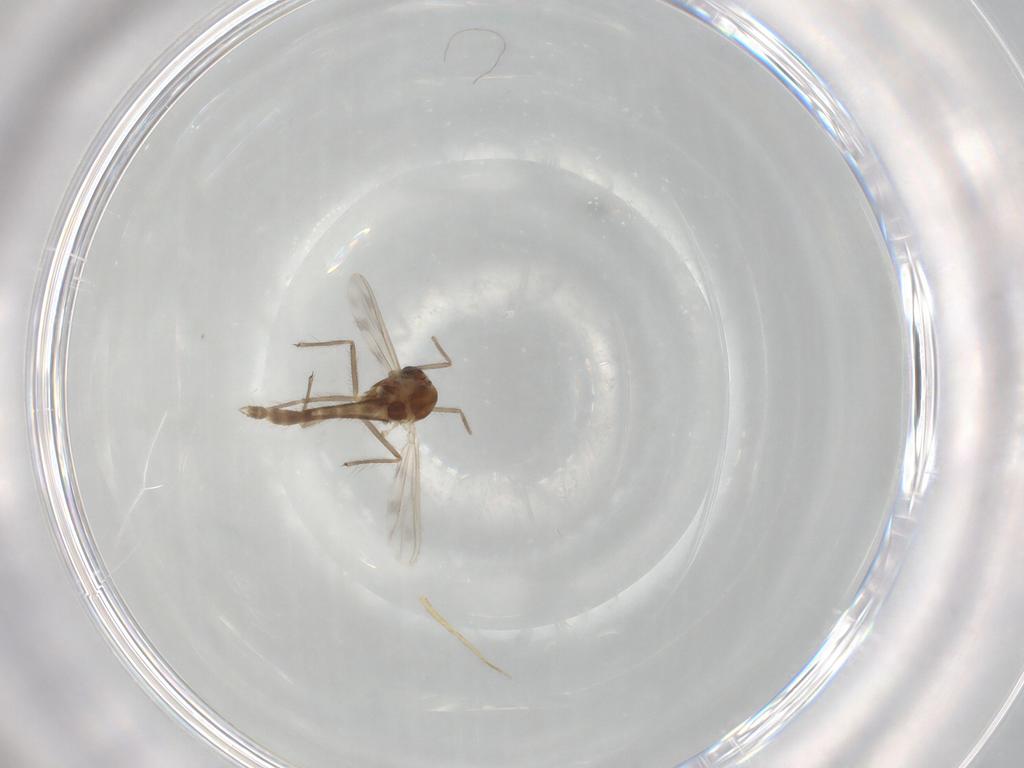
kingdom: Animalia
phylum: Arthropoda
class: Insecta
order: Diptera
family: Chironomidae
